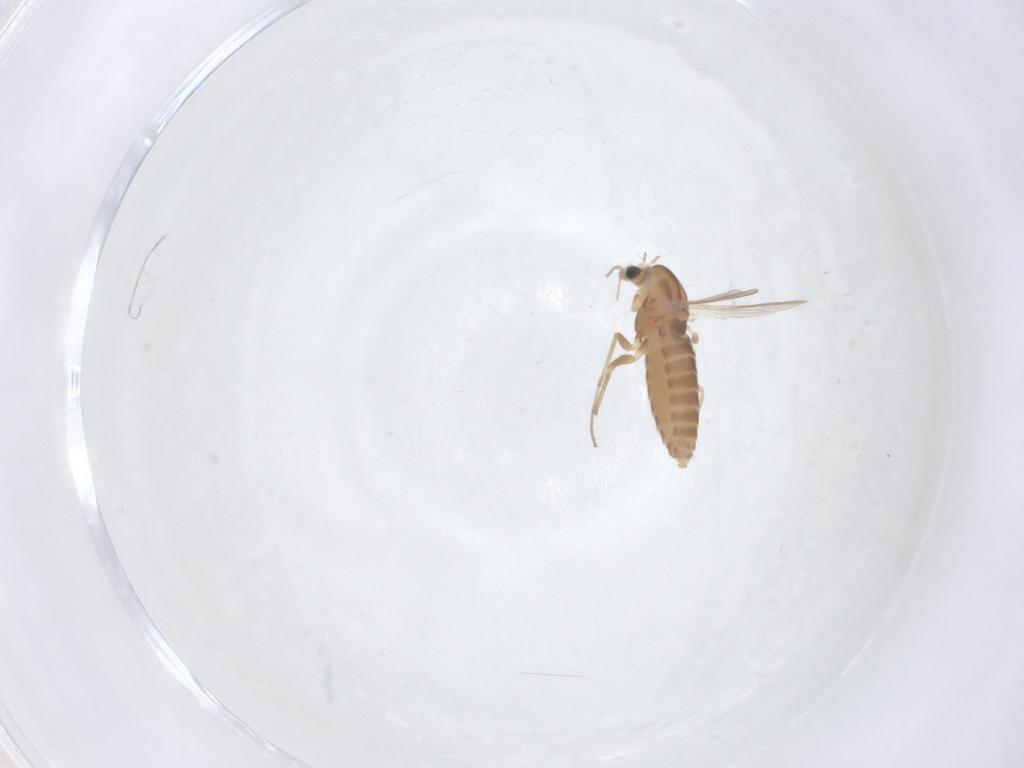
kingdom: Animalia
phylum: Arthropoda
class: Insecta
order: Diptera
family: Chironomidae
